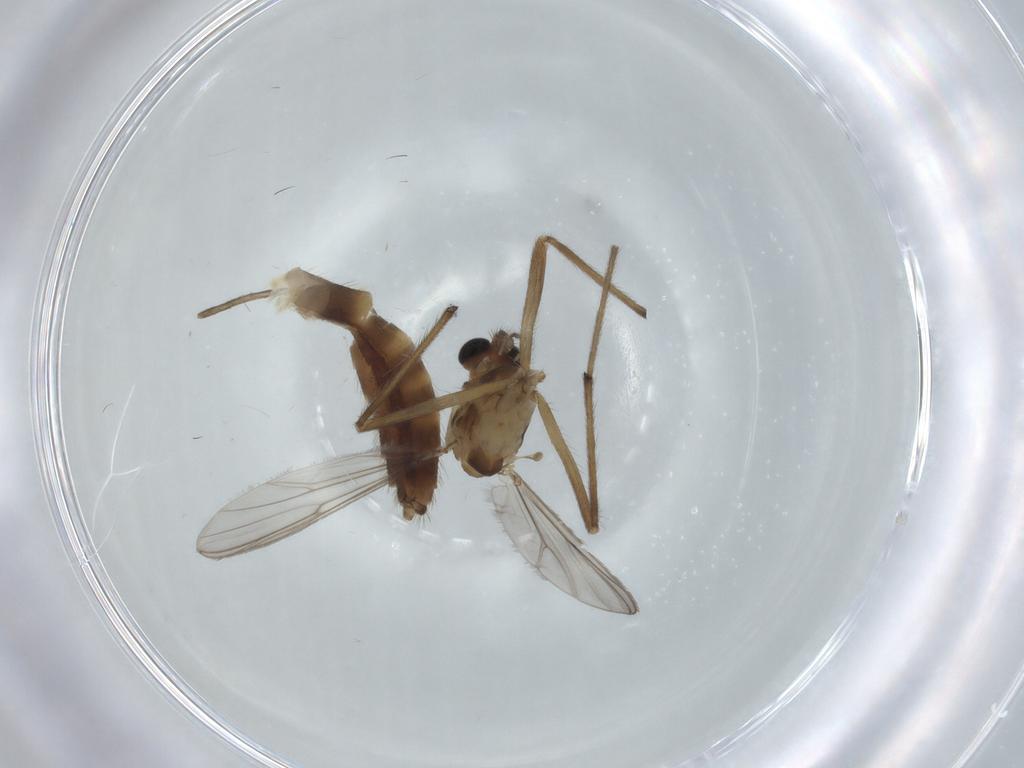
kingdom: Animalia
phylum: Arthropoda
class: Insecta
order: Diptera
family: Chironomidae
